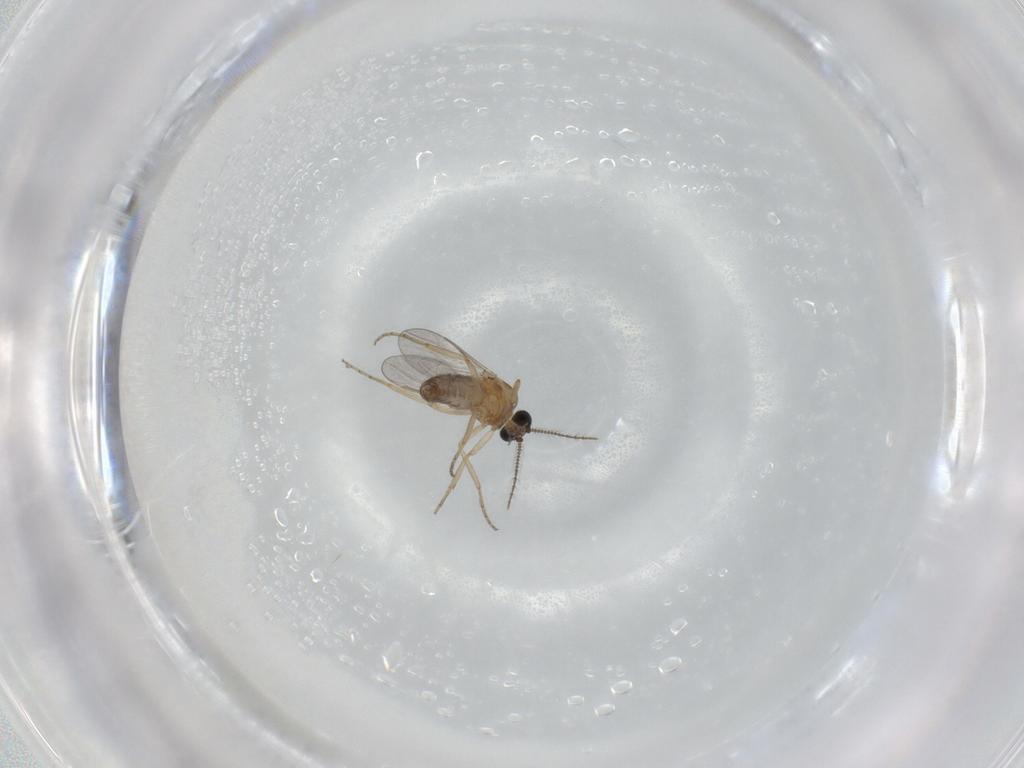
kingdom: Animalia
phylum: Arthropoda
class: Insecta
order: Diptera
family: Ceratopogonidae
